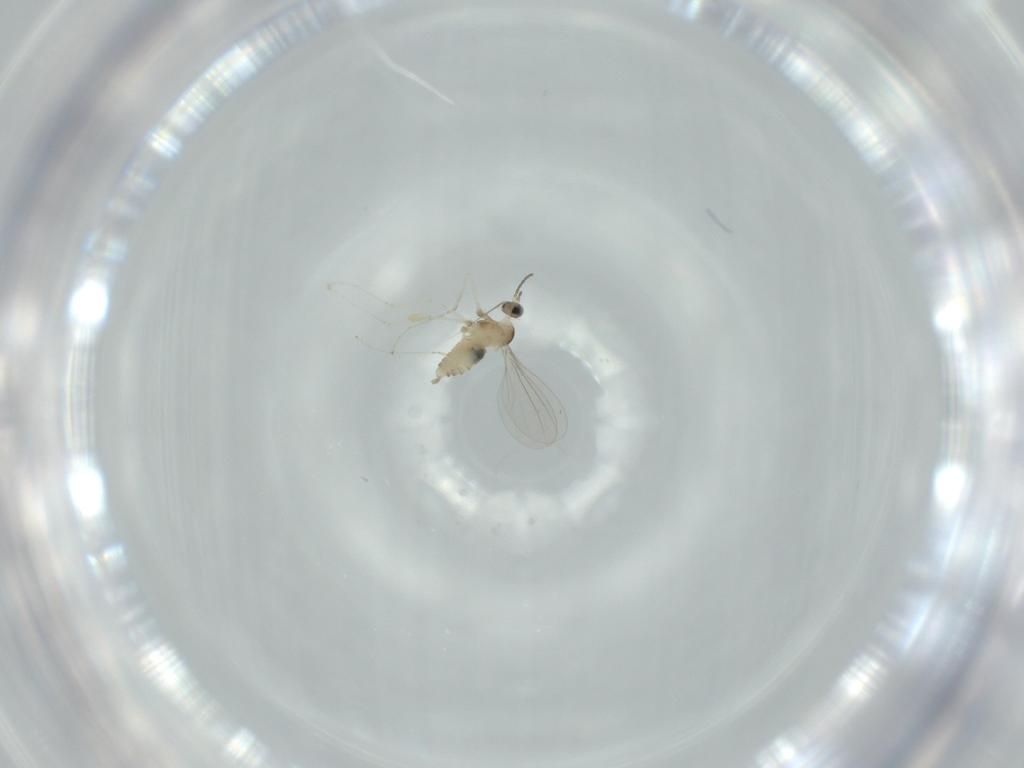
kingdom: Animalia
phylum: Arthropoda
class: Insecta
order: Diptera
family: Cecidomyiidae
